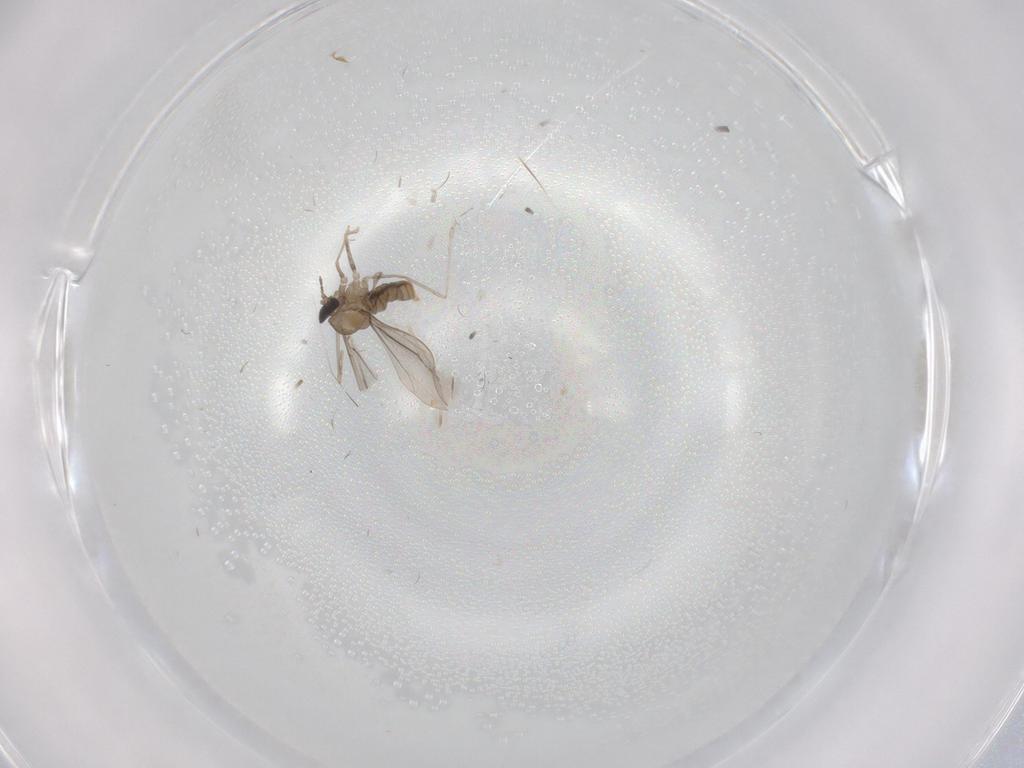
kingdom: Animalia
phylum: Arthropoda
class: Insecta
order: Diptera
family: Cecidomyiidae
